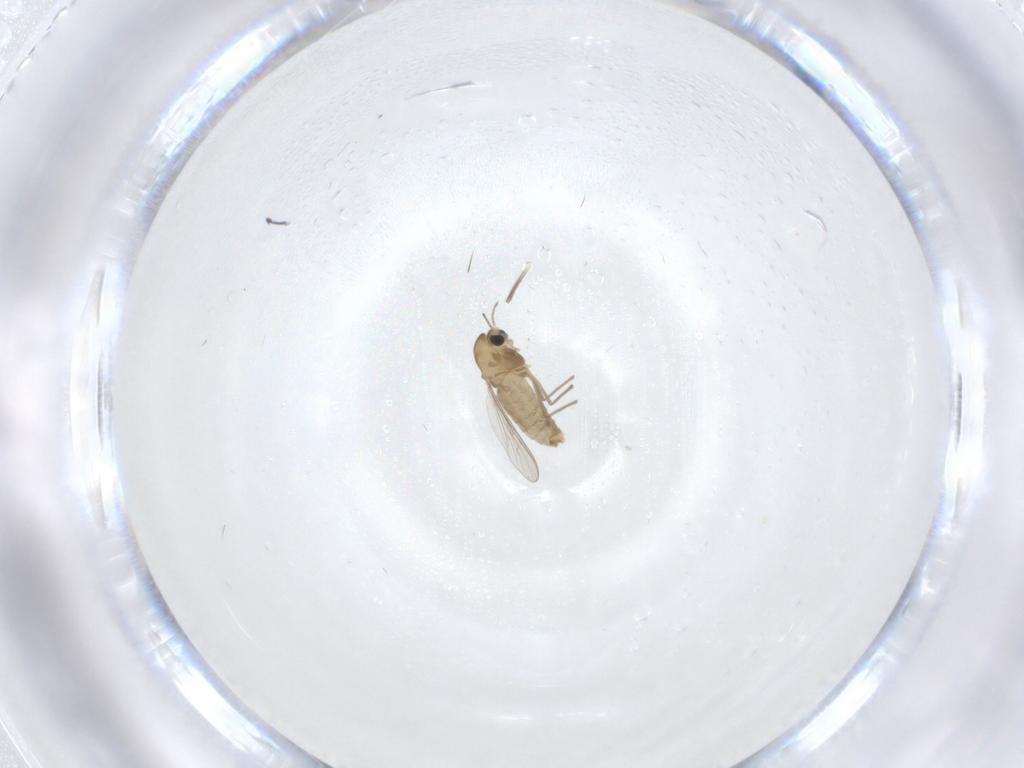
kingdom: Animalia
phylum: Arthropoda
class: Insecta
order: Diptera
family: Chironomidae
